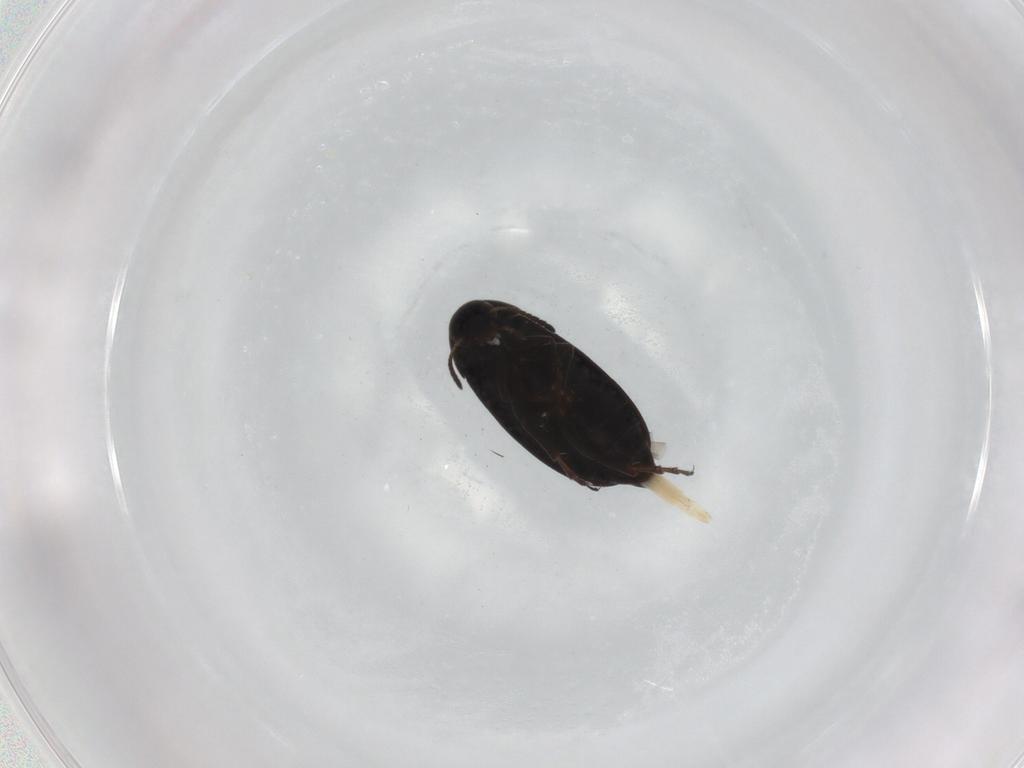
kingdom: Animalia
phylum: Arthropoda
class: Insecta
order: Coleoptera
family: Scraptiidae
